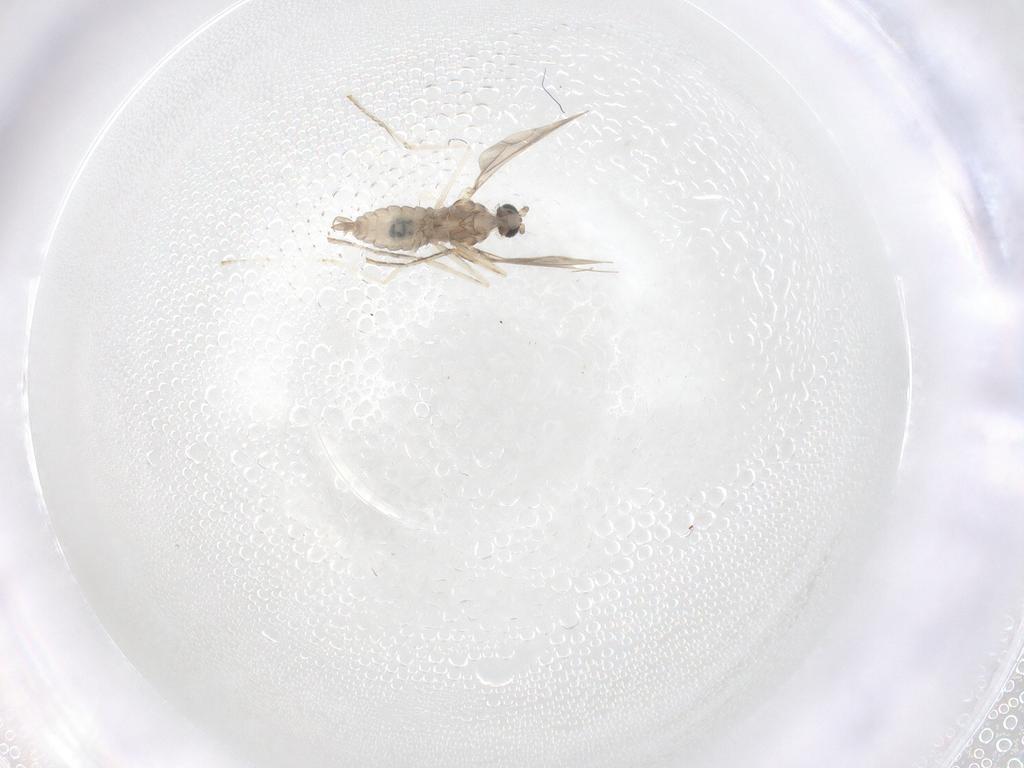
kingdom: Animalia
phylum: Arthropoda
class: Insecta
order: Diptera
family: Cecidomyiidae
